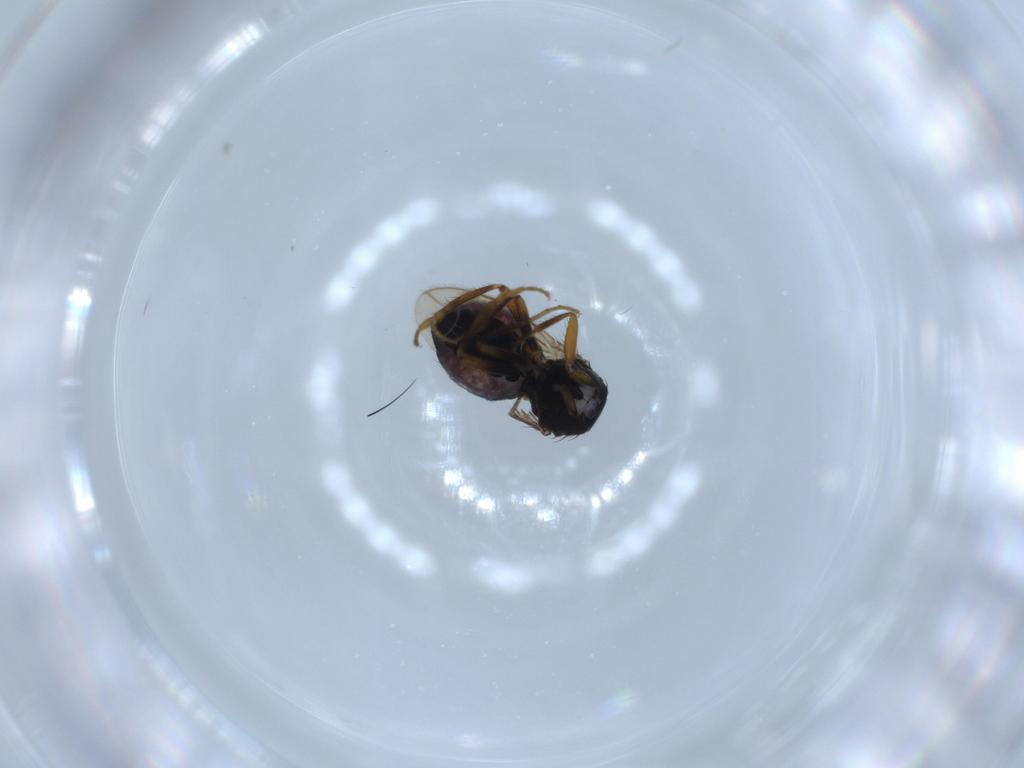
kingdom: Animalia
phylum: Arthropoda
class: Insecta
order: Diptera
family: Sphaeroceridae
